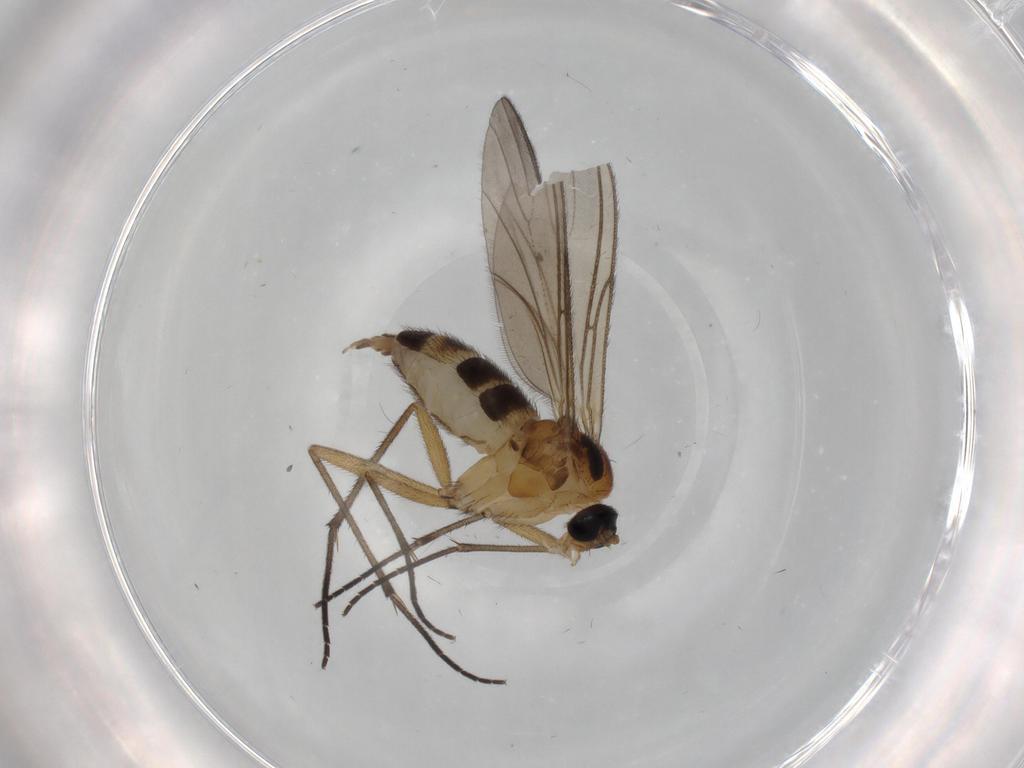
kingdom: Animalia
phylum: Arthropoda
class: Insecta
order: Diptera
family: Sciaridae
